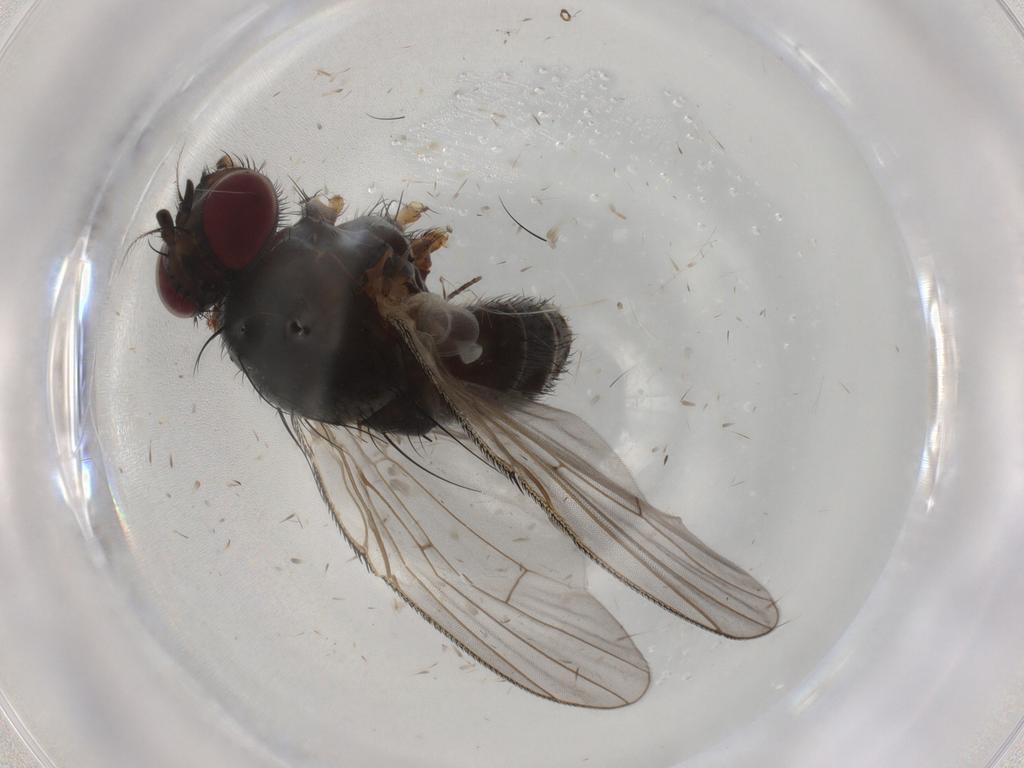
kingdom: Animalia
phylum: Arthropoda
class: Insecta
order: Diptera
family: Muscidae
